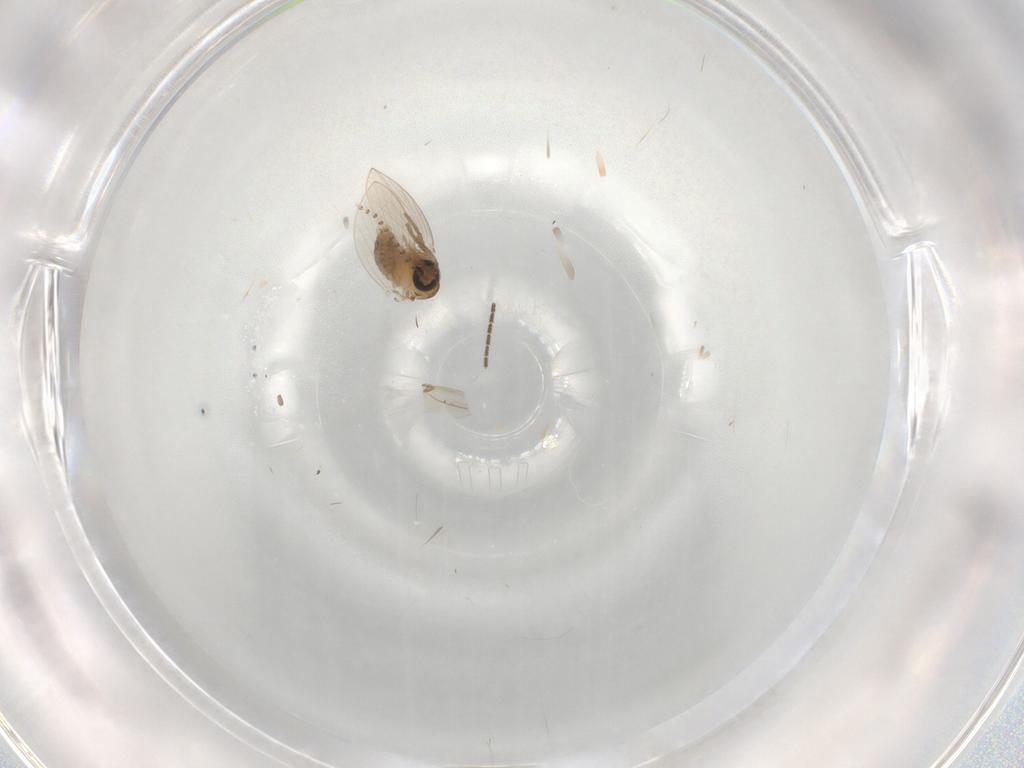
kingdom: Animalia
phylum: Arthropoda
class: Insecta
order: Diptera
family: Psychodidae
